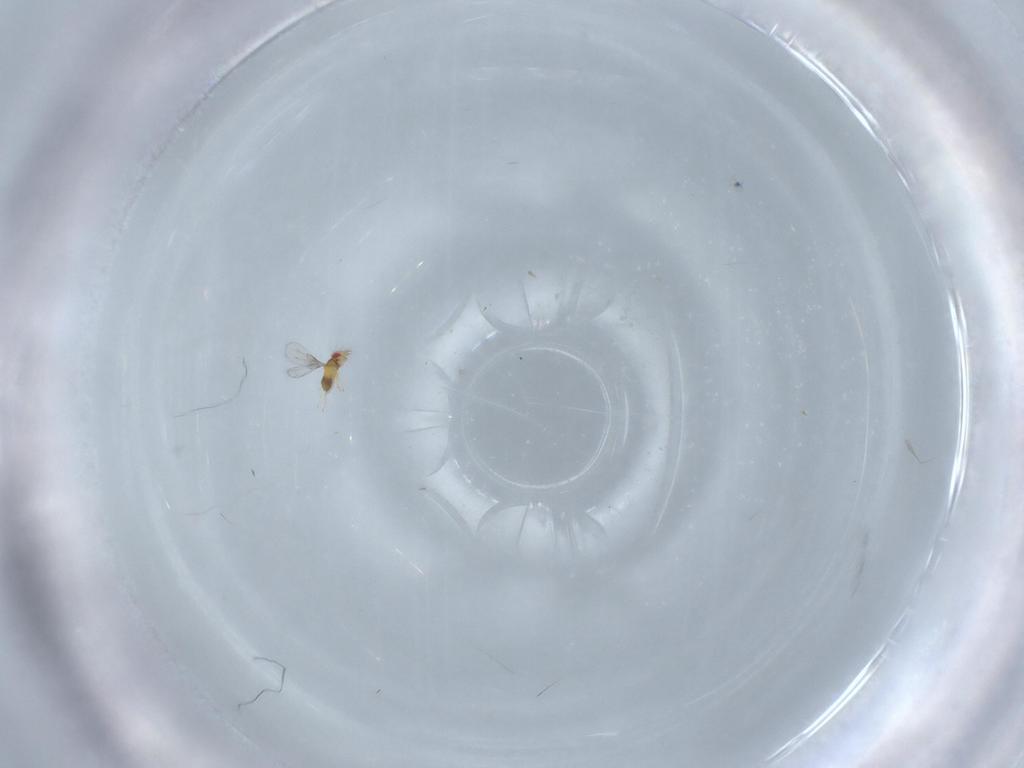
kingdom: Animalia
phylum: Arthropoda
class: Insecta
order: Hymenoptera
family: Trichogrammatidae
